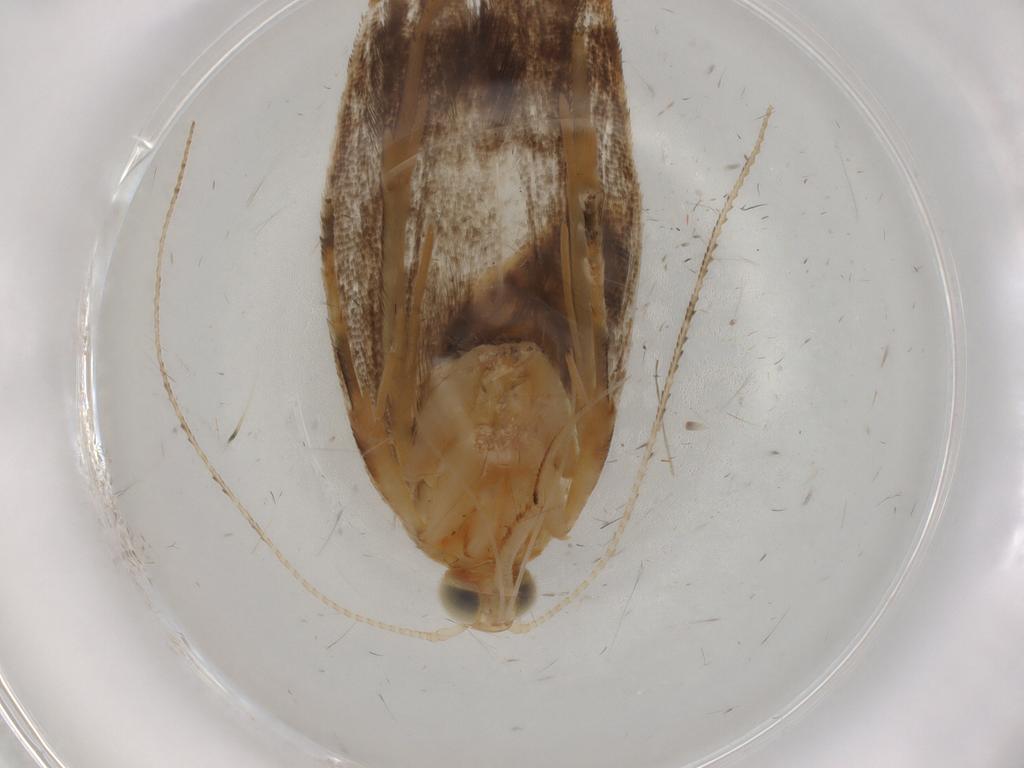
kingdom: Animalia
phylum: Arthropoda
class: Insecta
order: Lepidoptera
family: Gelechiidae
